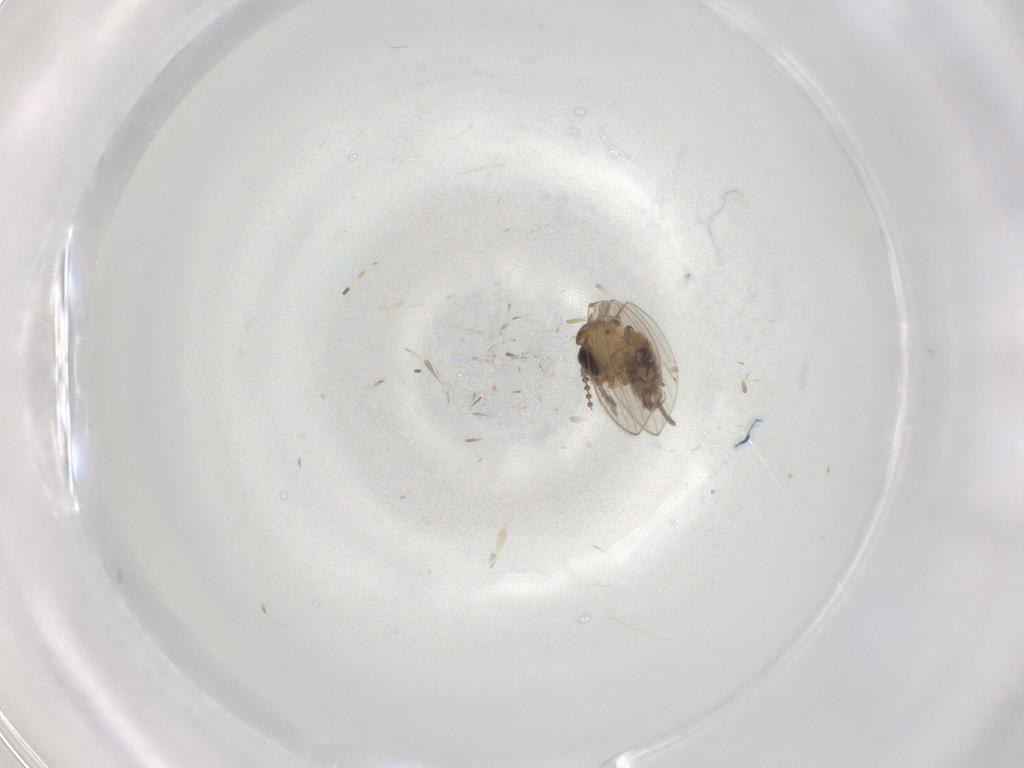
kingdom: Animalia
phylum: Arthropoda
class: Insecta
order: Diptera
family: Psychodidae
